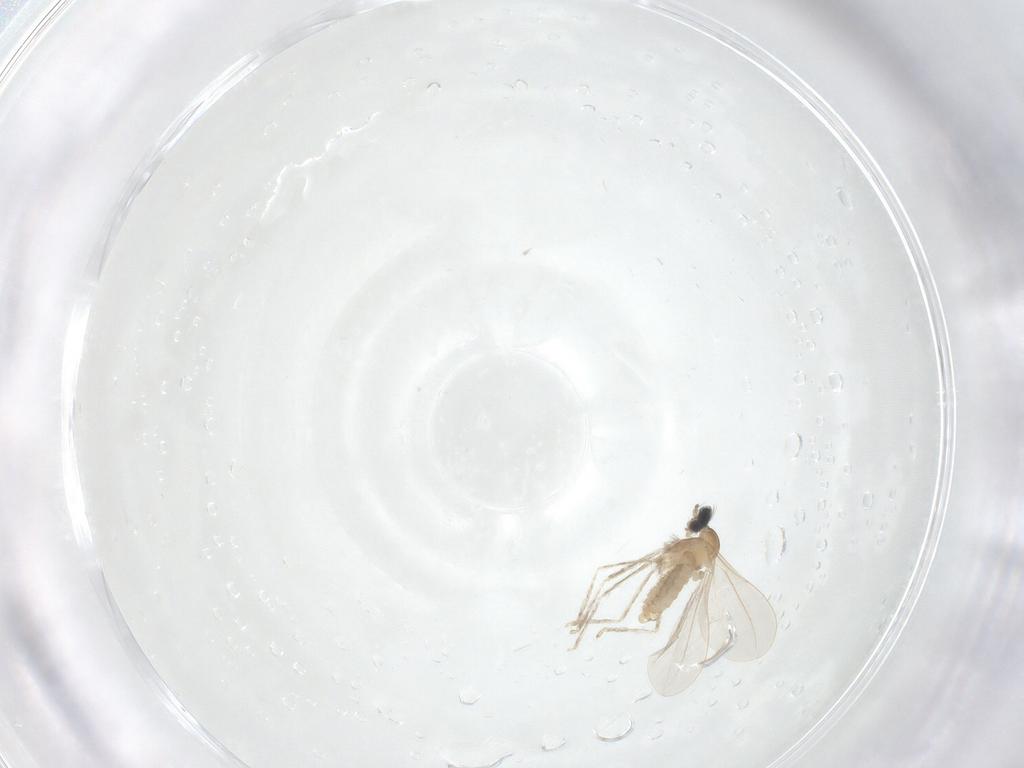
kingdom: Animalia
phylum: Arthropoda
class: Insecta
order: Diptera
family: Cecidomyiidae
